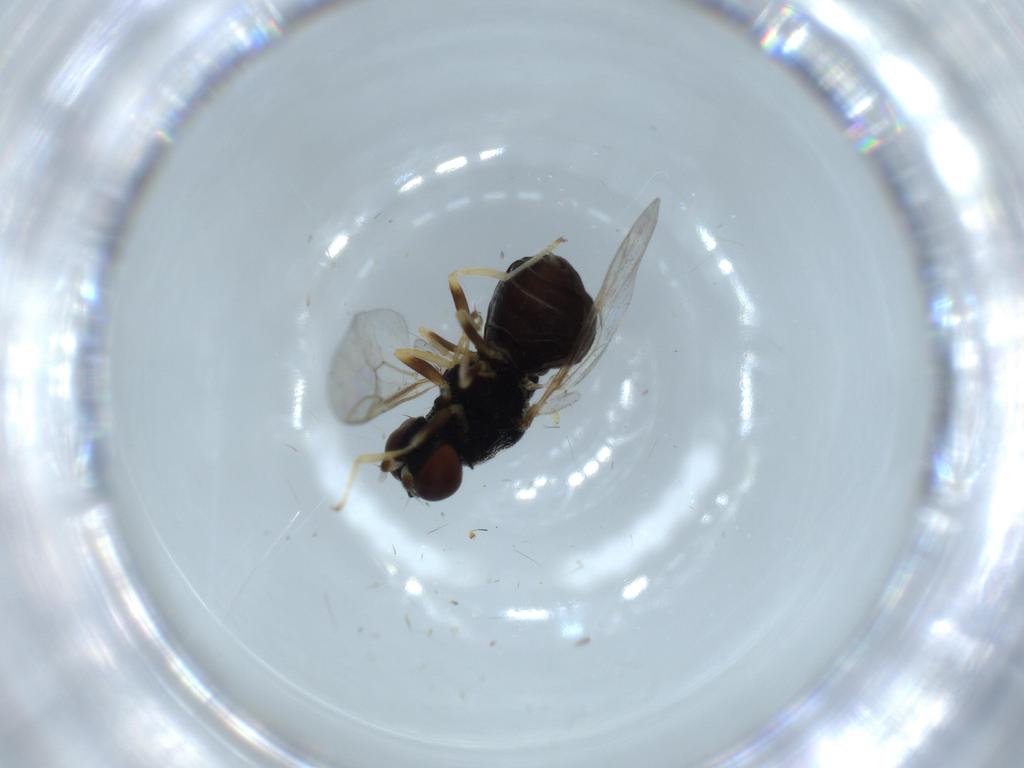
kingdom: Animalia
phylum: Arthropoda
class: Insecta
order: Diptera
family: Stratiomyidae
